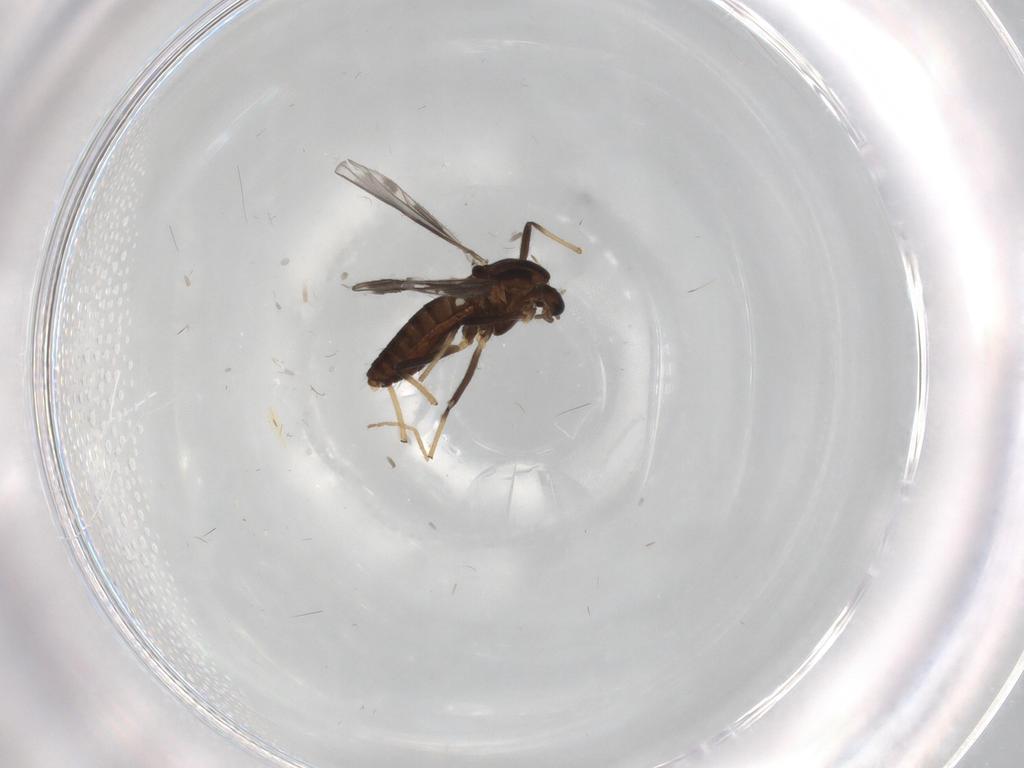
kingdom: Animalia
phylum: Arthropoda
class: Insecta
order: Diptera
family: Chironomidae
